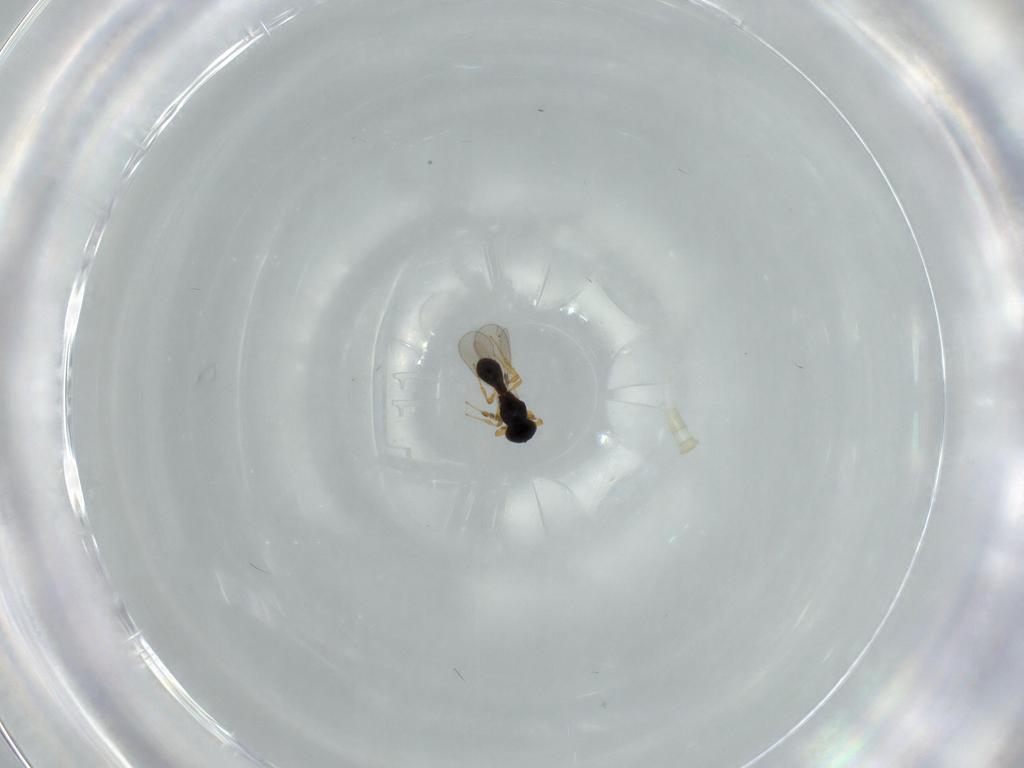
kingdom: Animalia
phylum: Arthropoda
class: Insecta
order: Hymenoptera
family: Platygastridae
